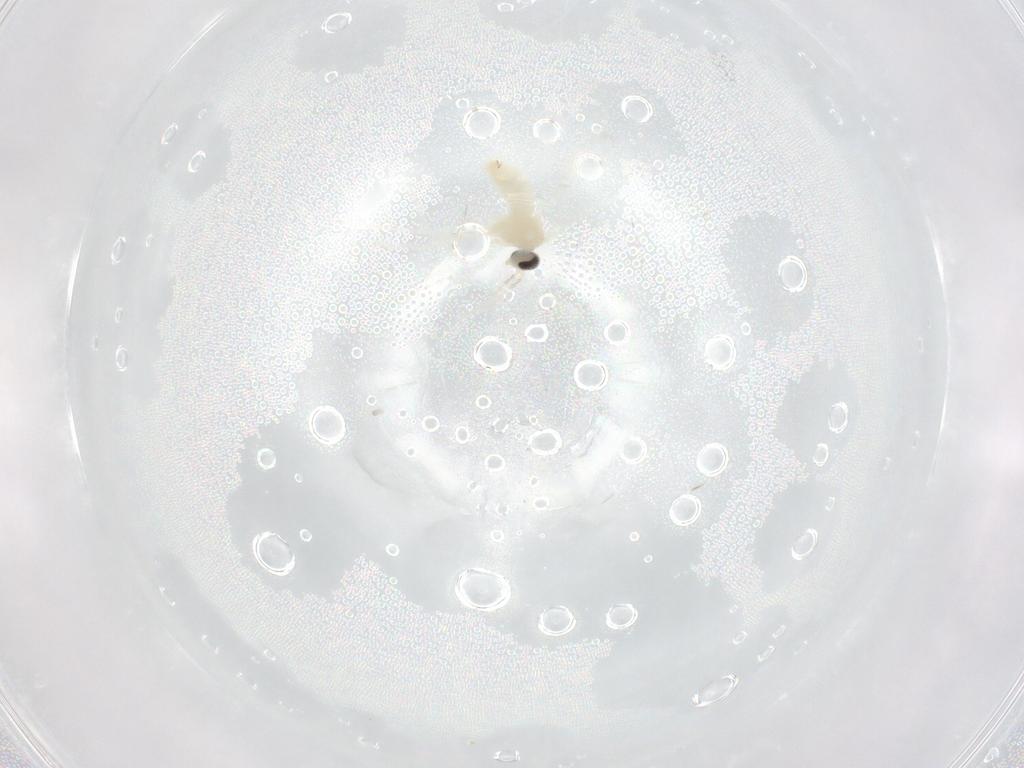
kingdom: Animalia
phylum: Arthropoda
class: Insecta
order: Diptera
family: Cecidomyiidae
